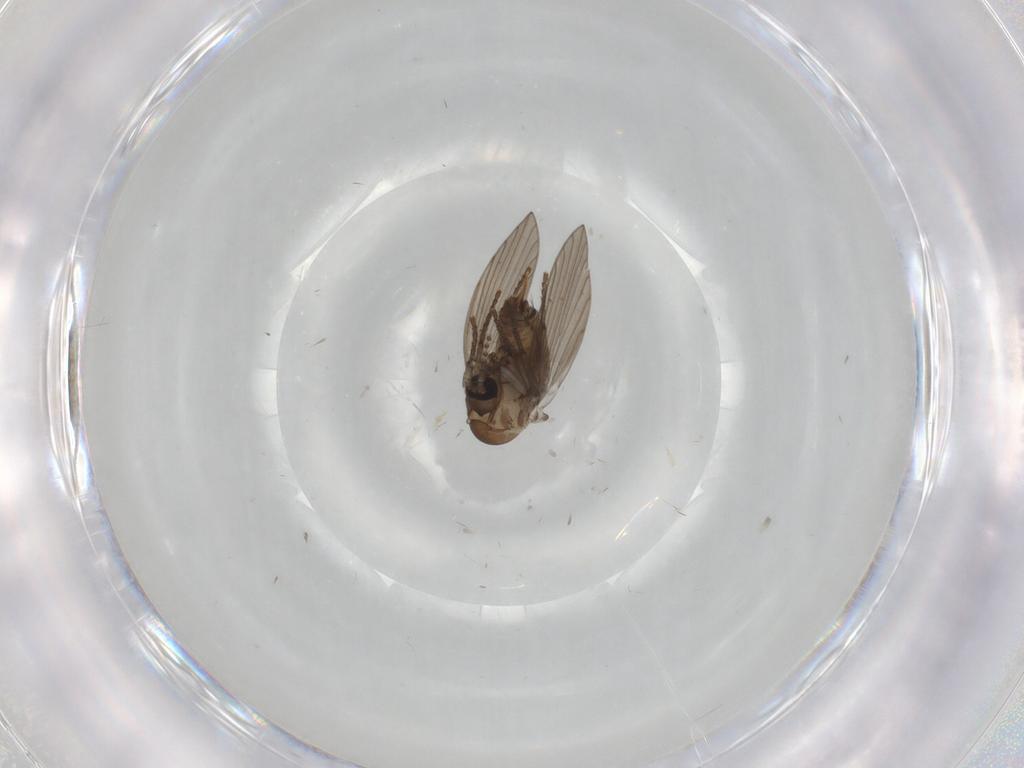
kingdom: Animalia
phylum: Arthropoda
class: Insecta
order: Diptera
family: Psychodidae
